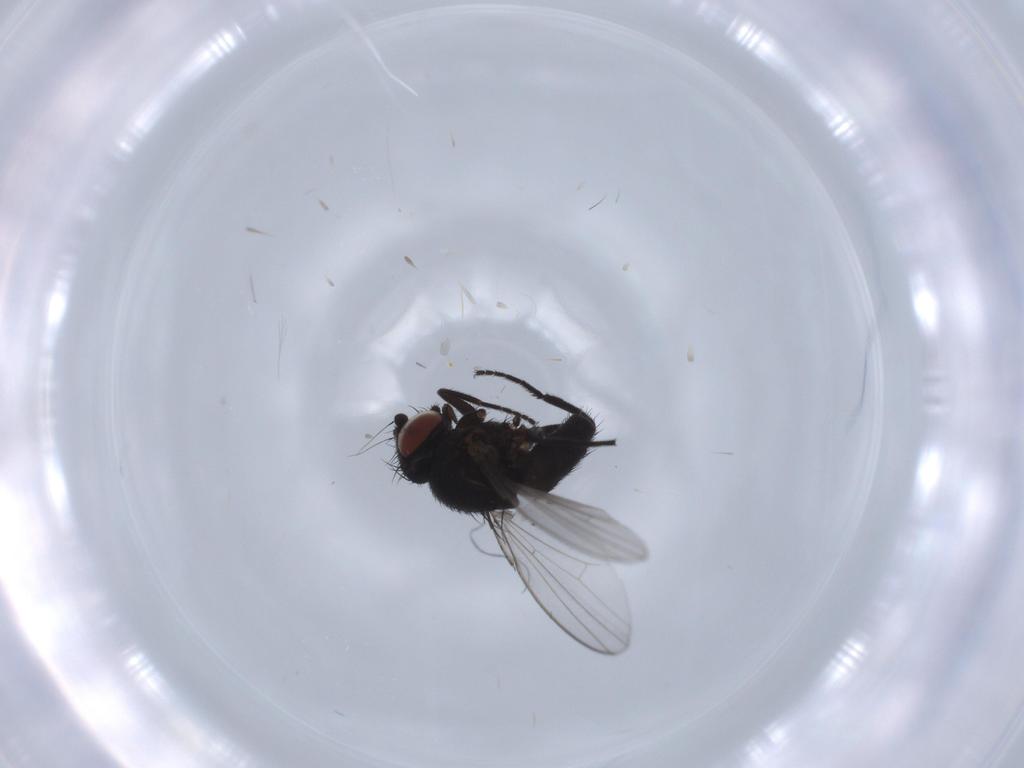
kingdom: Animalia
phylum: Arthropoda
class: Insecta
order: Diptera
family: Milichiidae
